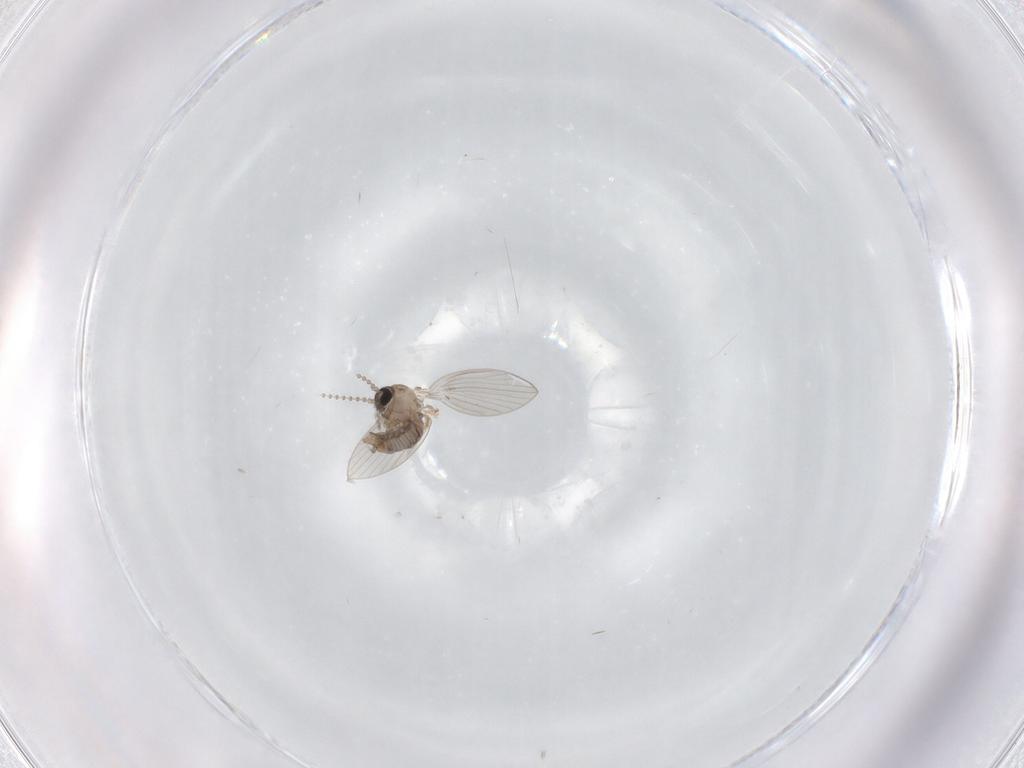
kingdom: Animalia
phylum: Arthropoda
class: Insecta
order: Diptera
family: Psychodidae
